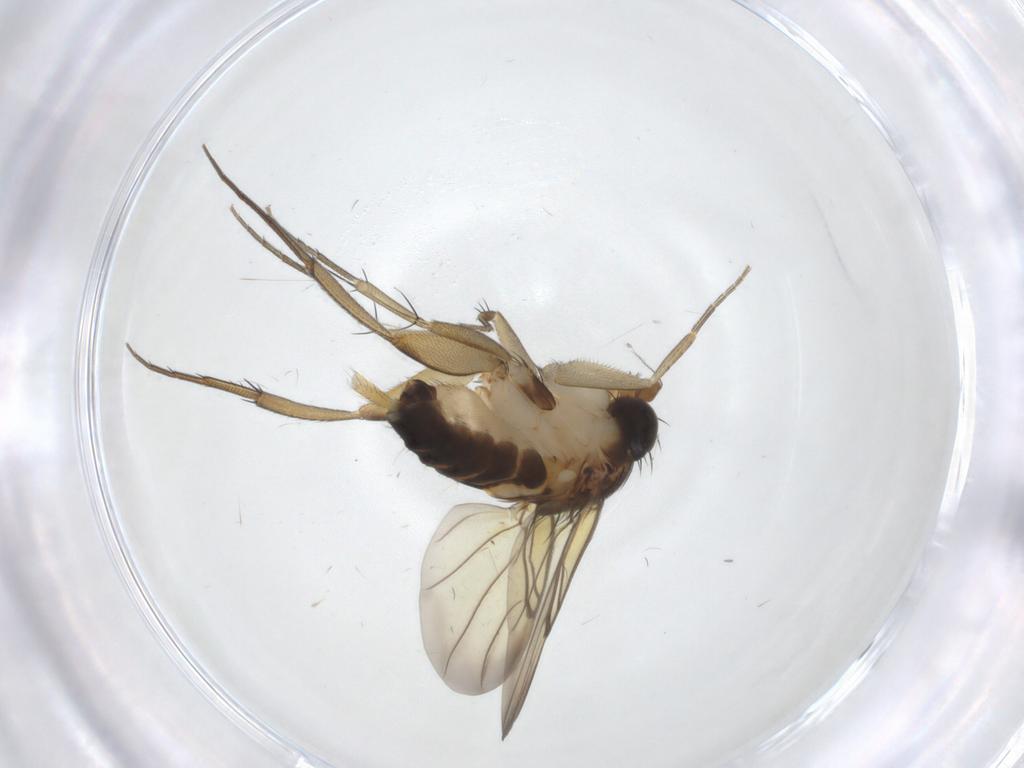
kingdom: Animalia
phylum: Arthropoda
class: Insecta
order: Diptera
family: Phoridae
